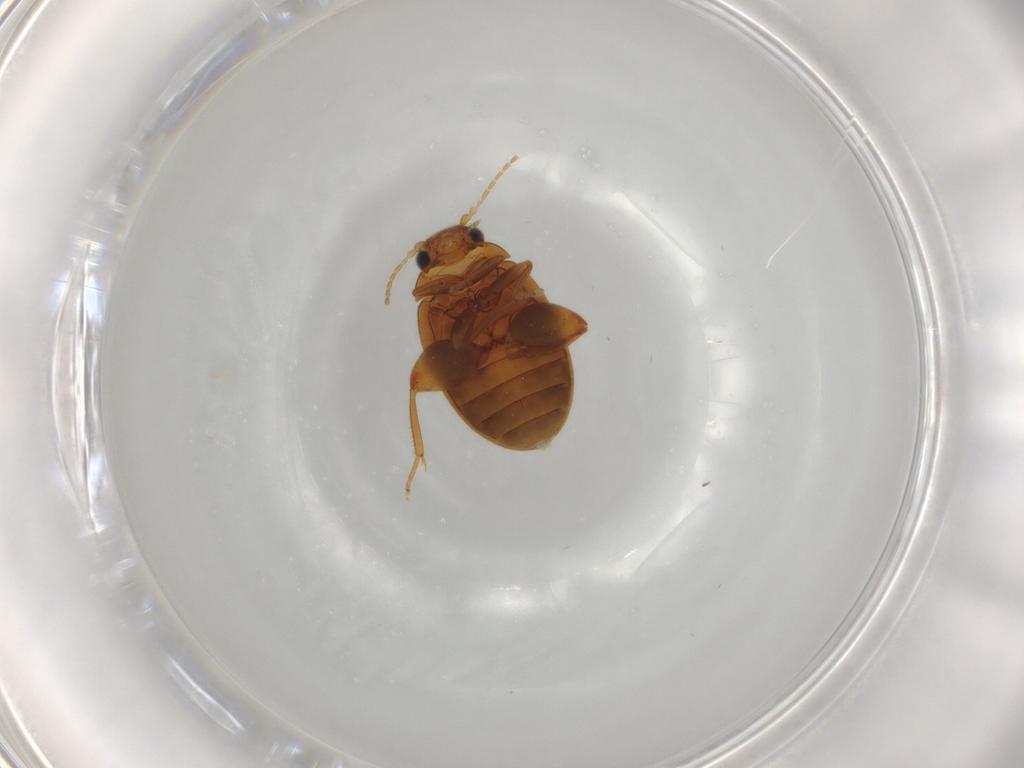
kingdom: Animalia
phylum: Arthropoda
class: Insecta
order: Coleoptera
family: Scirtidae
